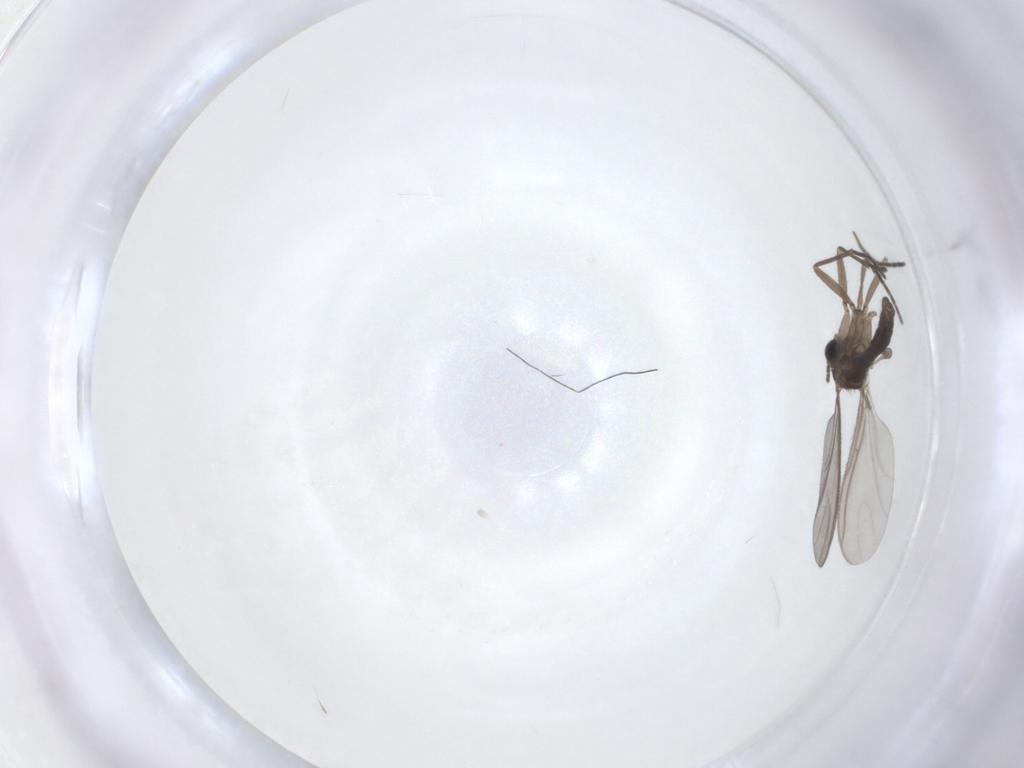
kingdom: Animalia
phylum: Arthropoda
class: Insecta
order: Diptera
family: Sciaridae
